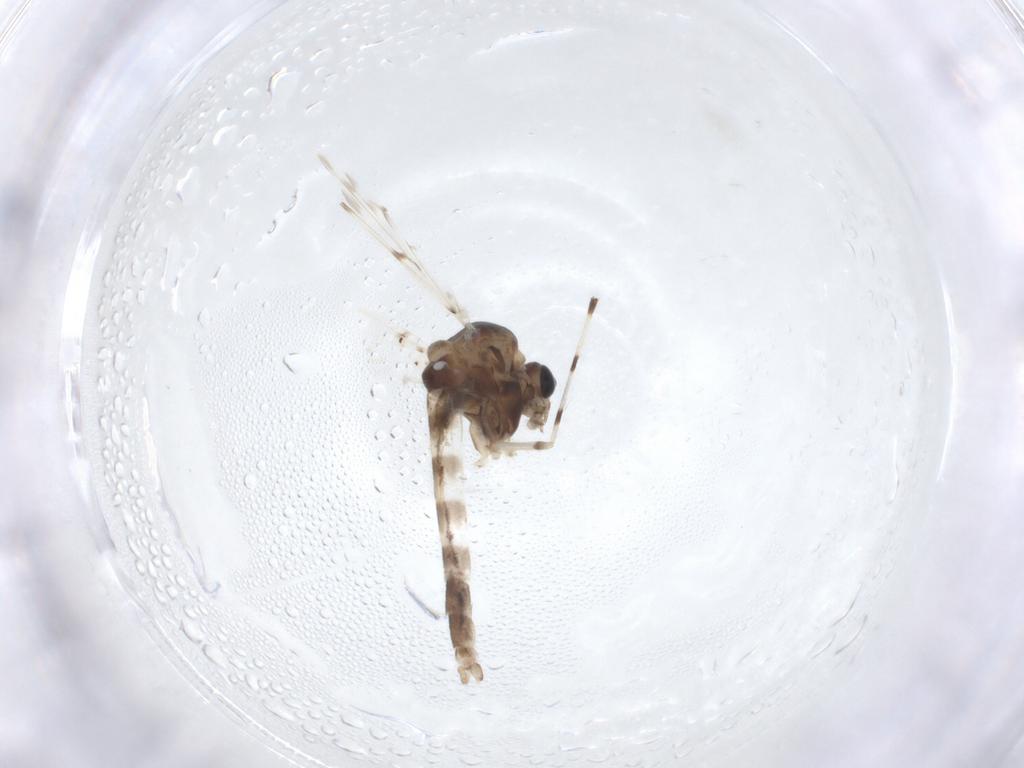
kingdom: Animalia
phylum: Arthropoda
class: Insecta
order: Diptera
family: Chironomidae
